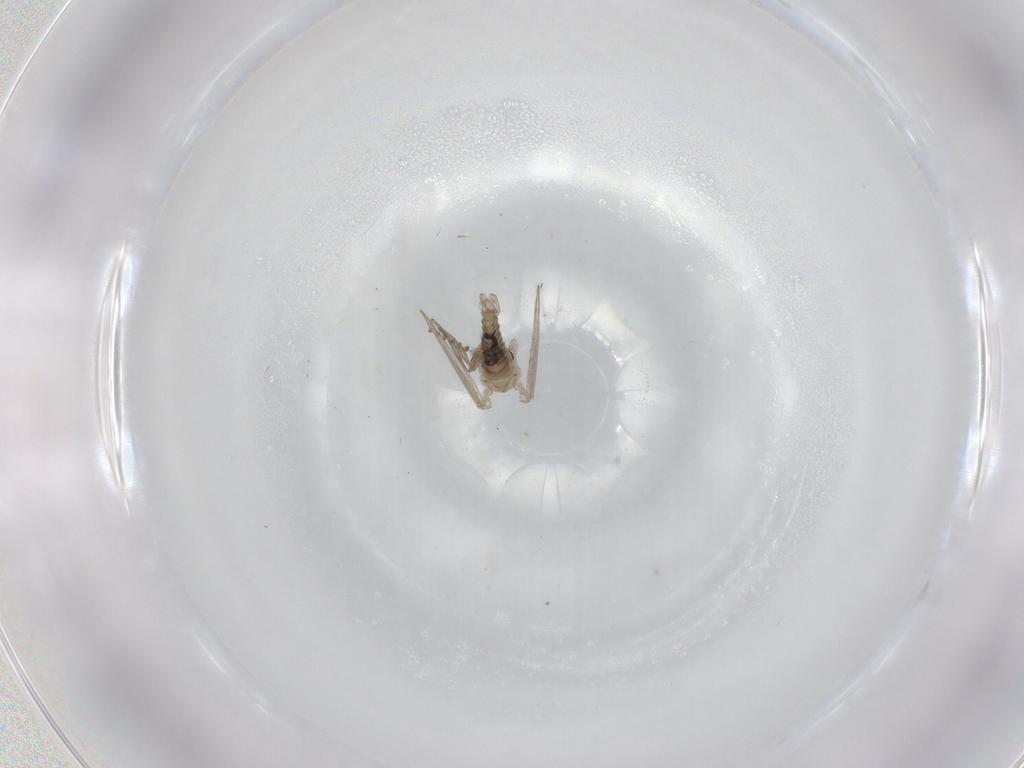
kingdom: Animalia
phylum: Arthropoda
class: Insecta
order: Diptera
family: Psychodidae
